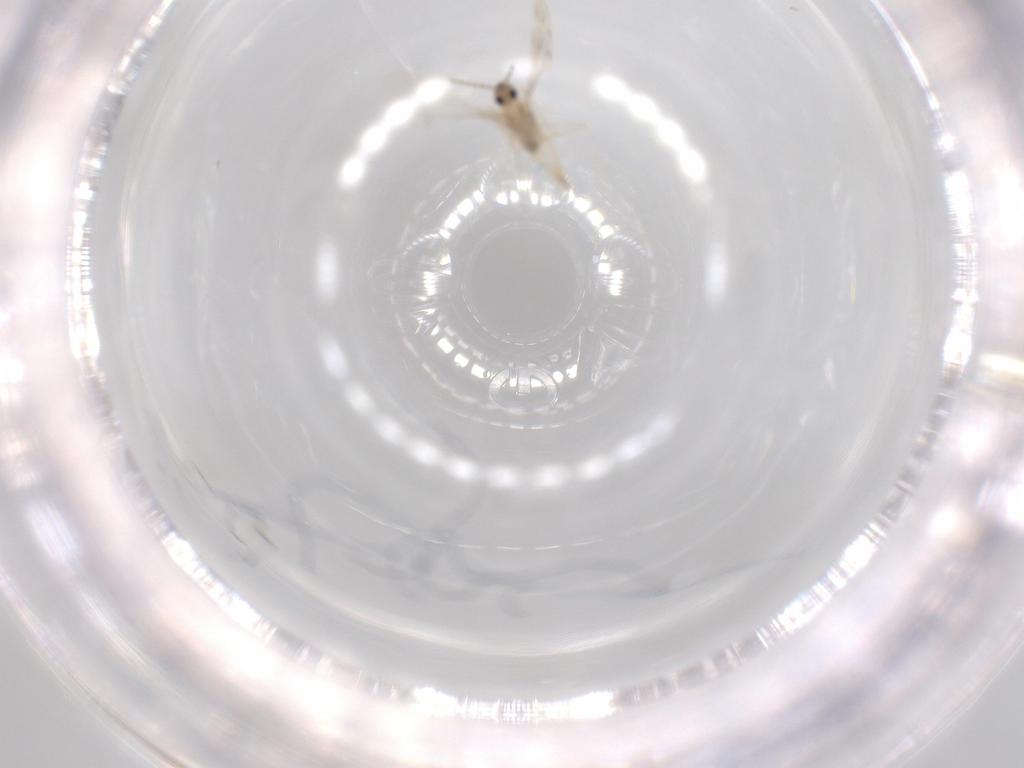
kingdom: Animalia
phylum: Arthropoda
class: Insecta
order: Diptera
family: Cecidomyiidae
